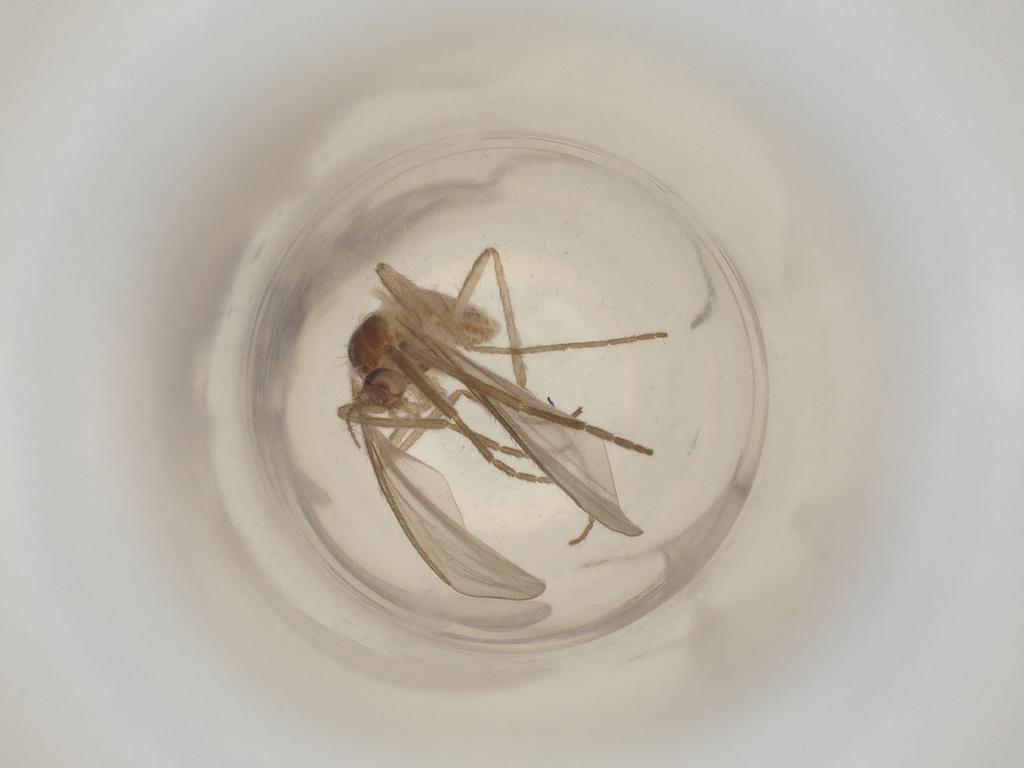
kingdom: Animalia
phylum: Arthropoda
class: Insecta
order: Diptera
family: Cecidomyiidae
